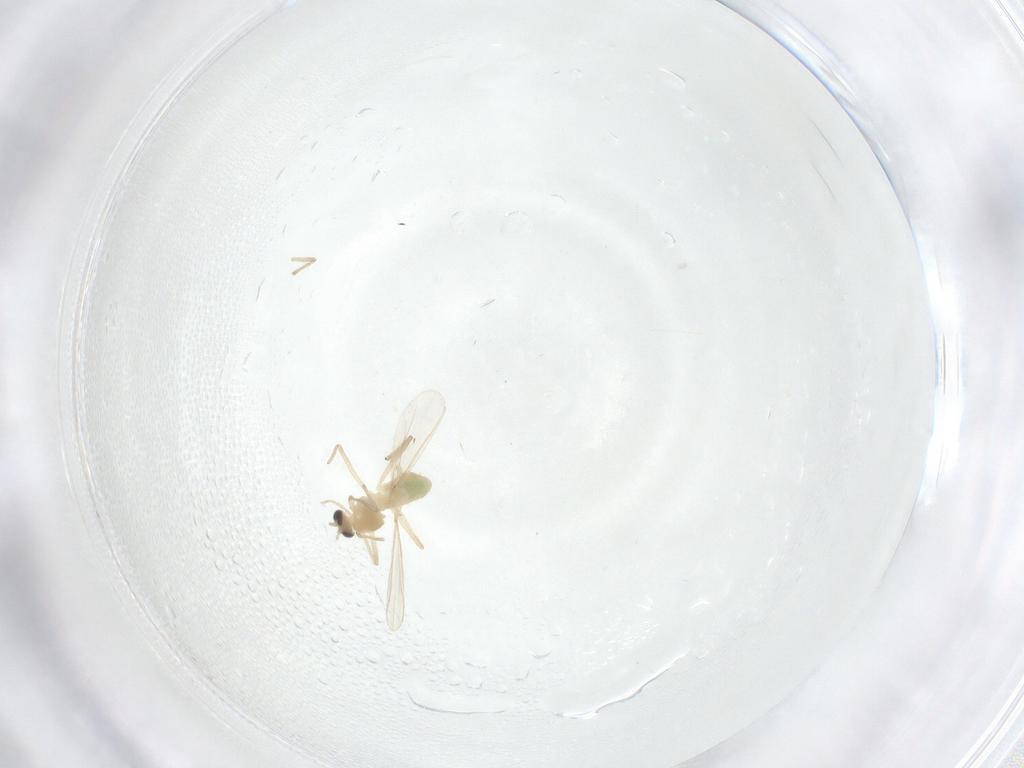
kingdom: Animalia
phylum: Arthropoda
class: Insecta
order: Diptera
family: Chironomidae
